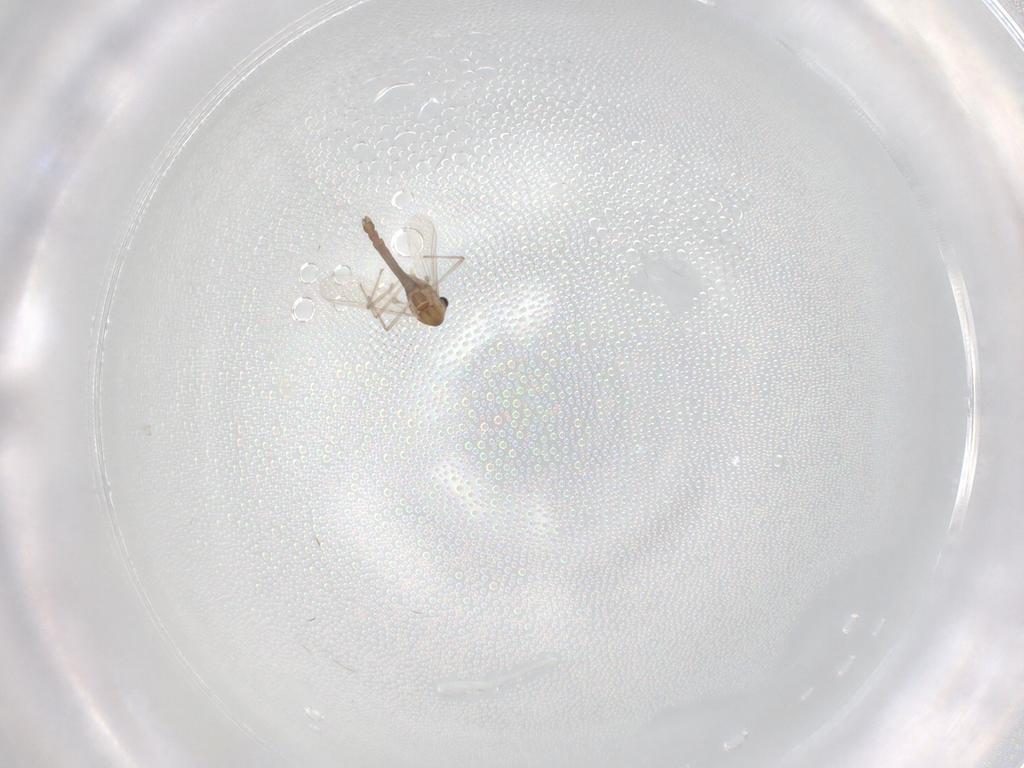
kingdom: Animalia
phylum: Arthropoda
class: Insecta
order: Diptera
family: Chironomidae
